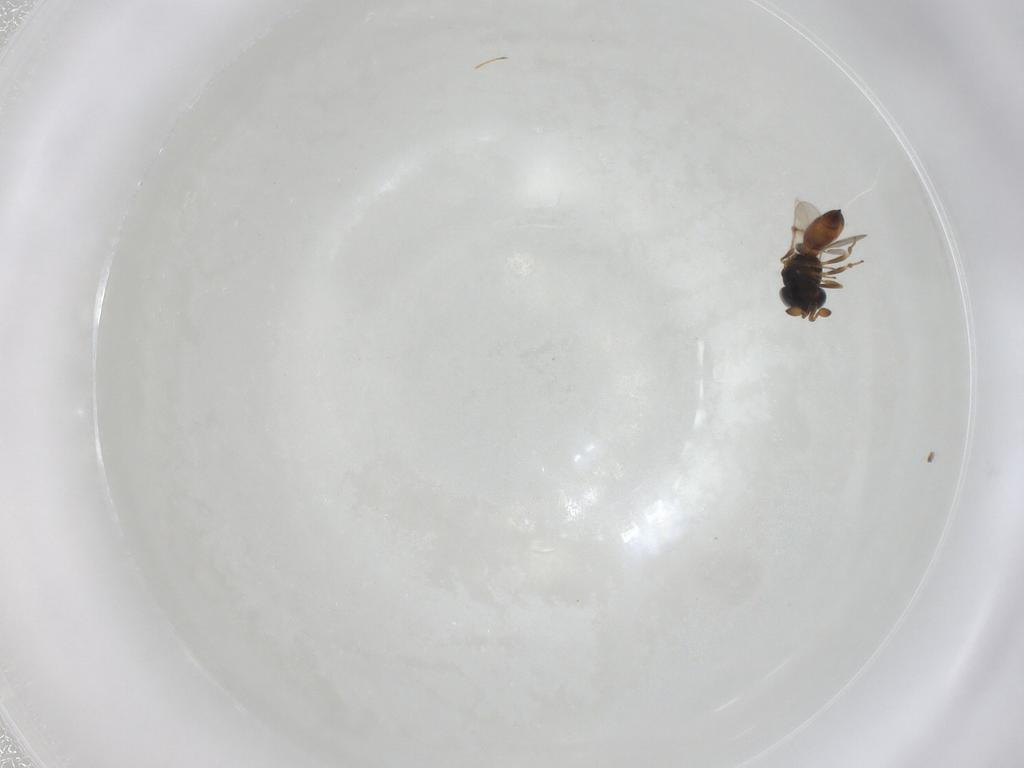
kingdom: Animalia
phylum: Arthropoda
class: Insecta
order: Hymenoptera
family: Scelionidae
